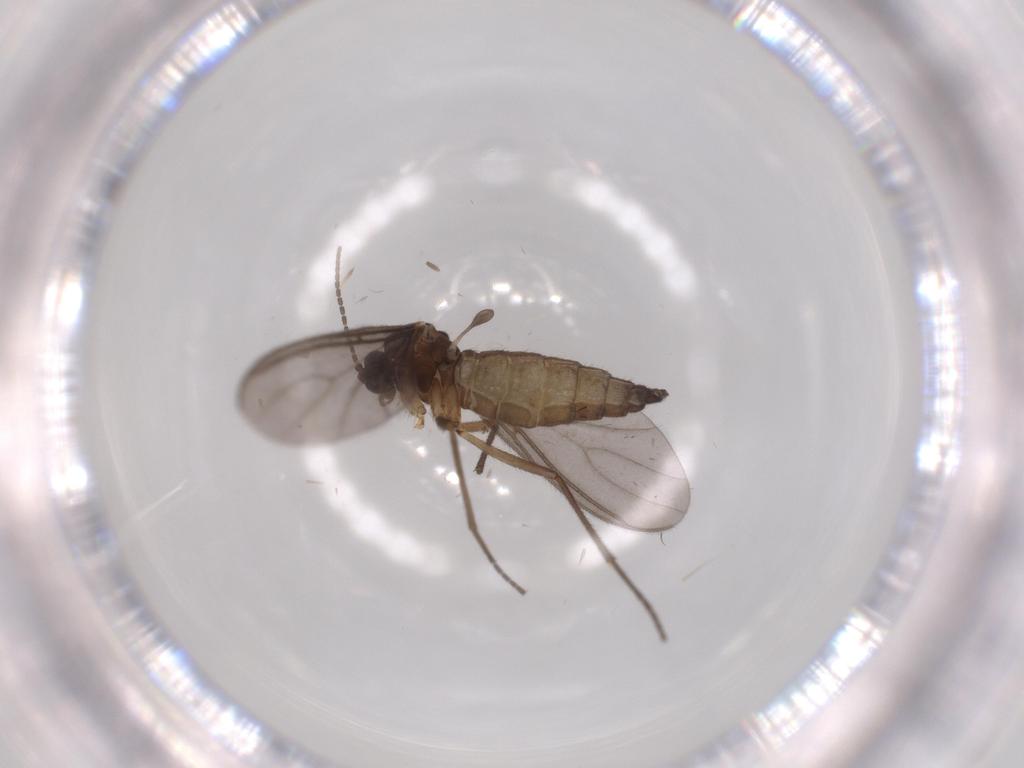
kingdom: Animalia
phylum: Arthropoda
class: Insecta
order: Diptera
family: Sciaridae
